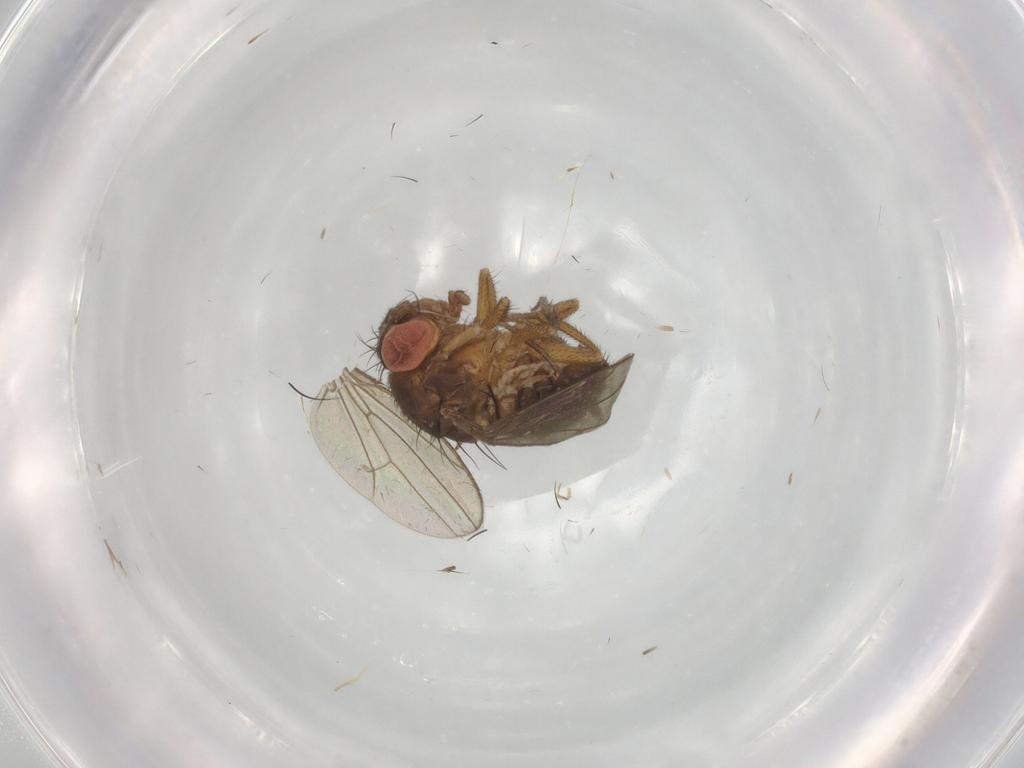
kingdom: Animalia
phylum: Arthropoda
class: Insecta
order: Diptera
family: Drosophilidae
